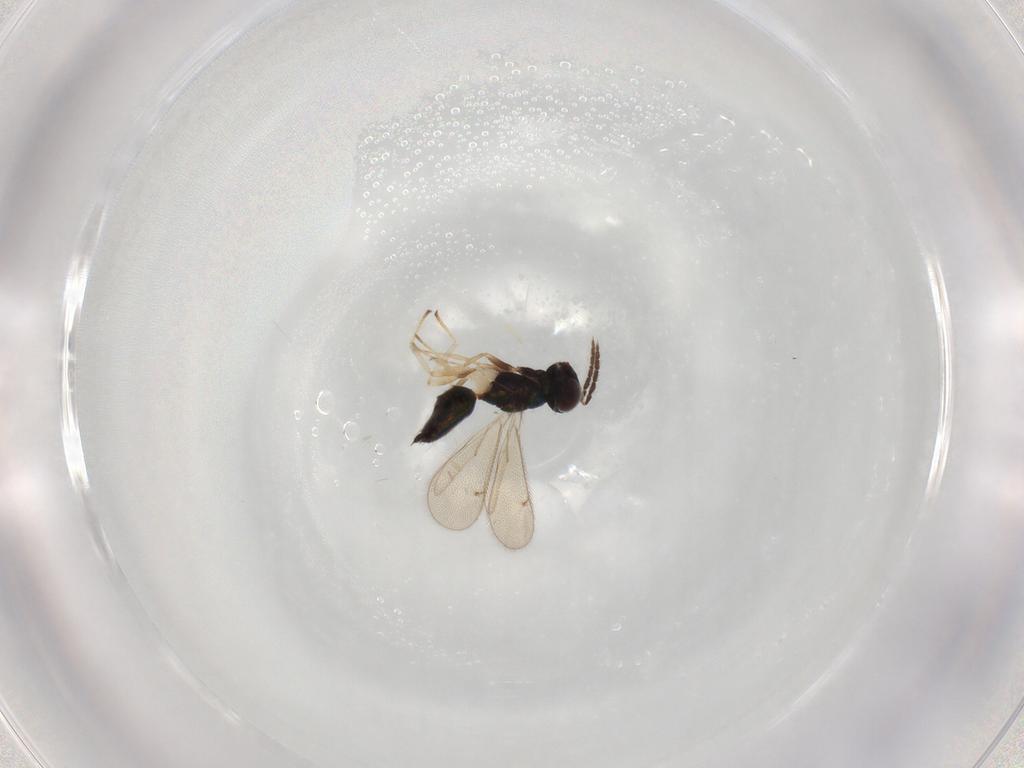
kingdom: Animalia
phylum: Arthropoda
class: Insecta
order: Hymenoptera
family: Eulophidae
